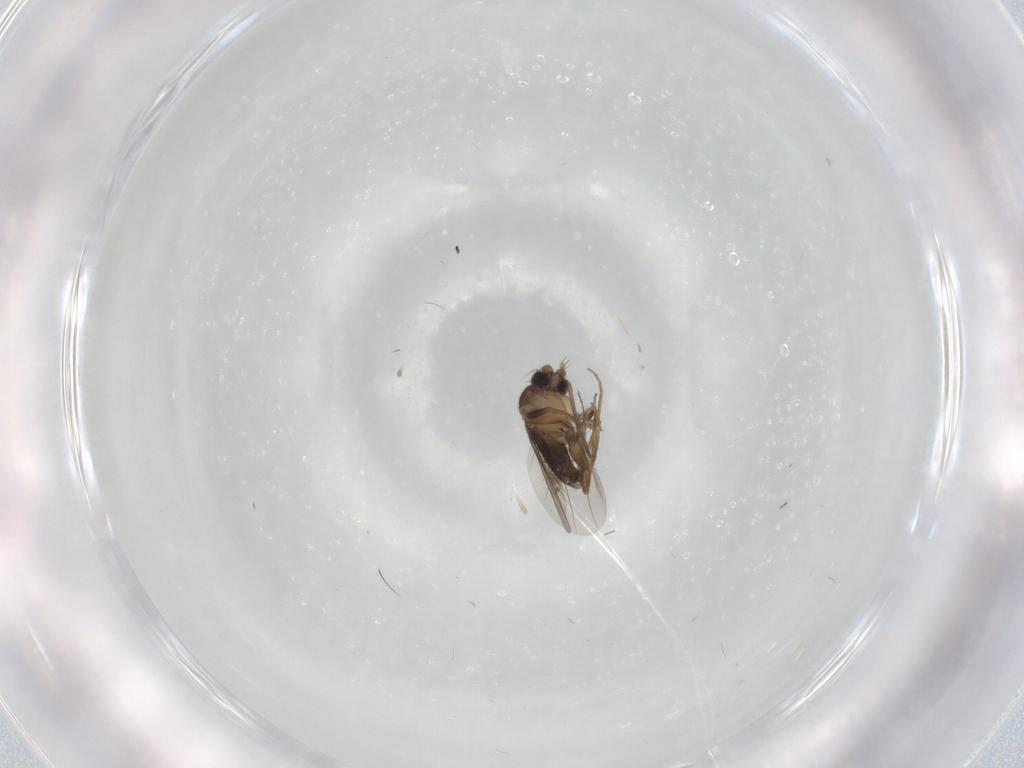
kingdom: Animalia
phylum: Arthropoda
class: Insecta
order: Diptera
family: Phoridae
